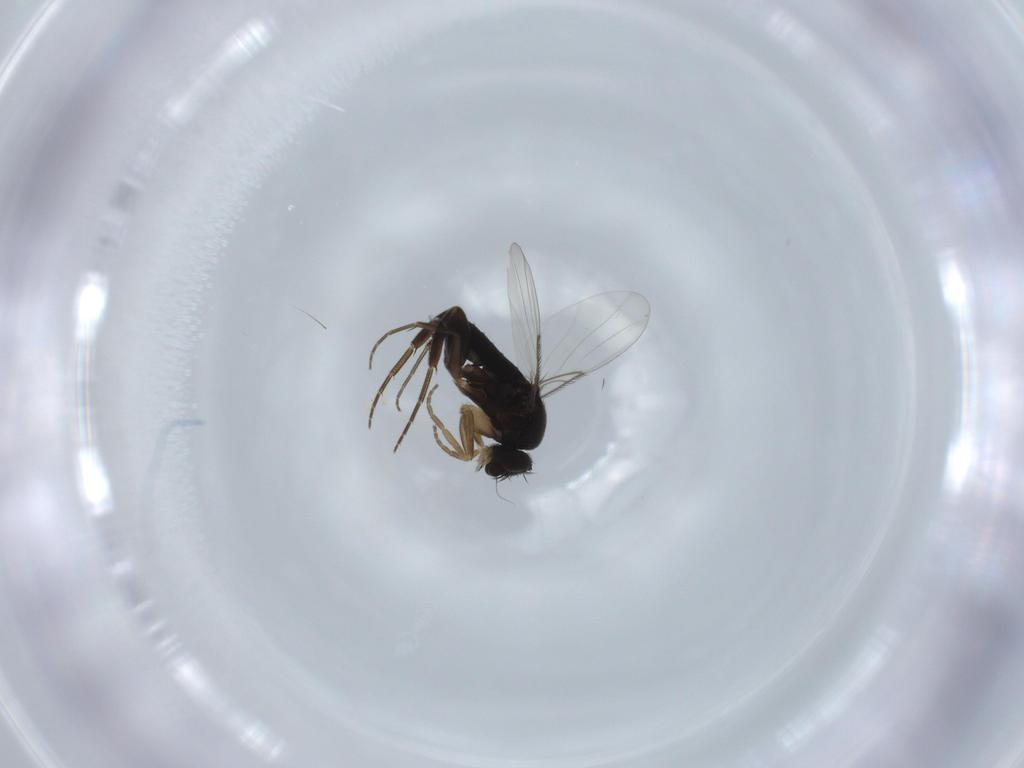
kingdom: Animalia
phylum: Arthropoda
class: Insecta
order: Diptera
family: Phoridae
